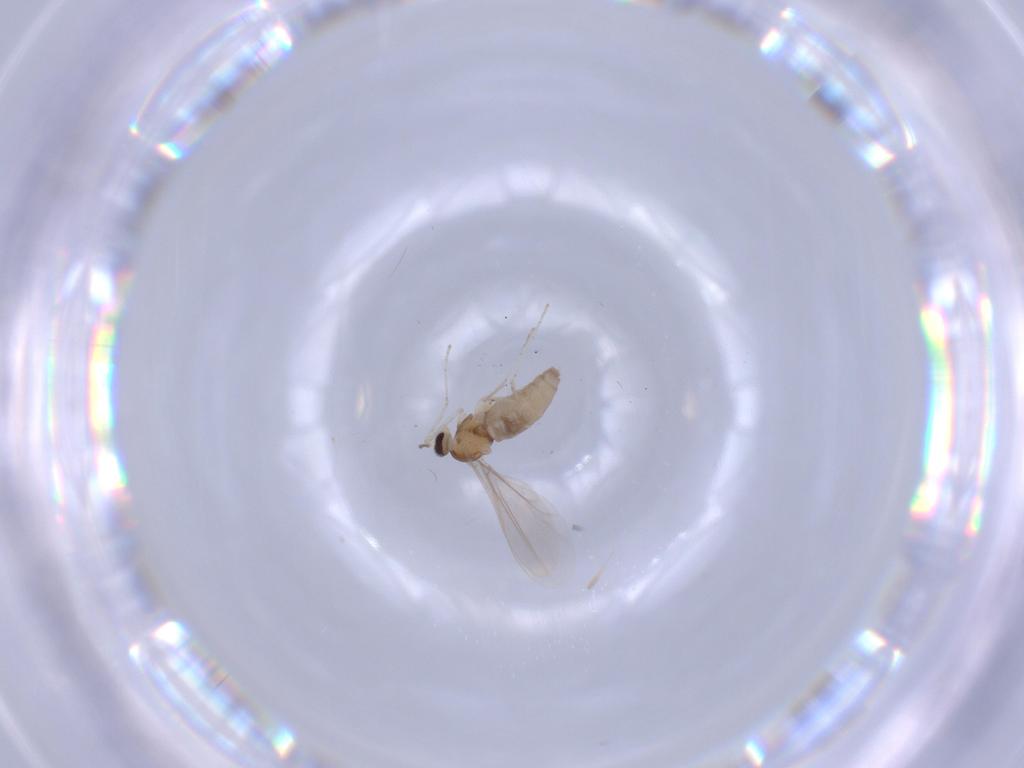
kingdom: Animalia
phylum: Arthropoda
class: Insecta
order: Diptera
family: Cecidomyiidae
